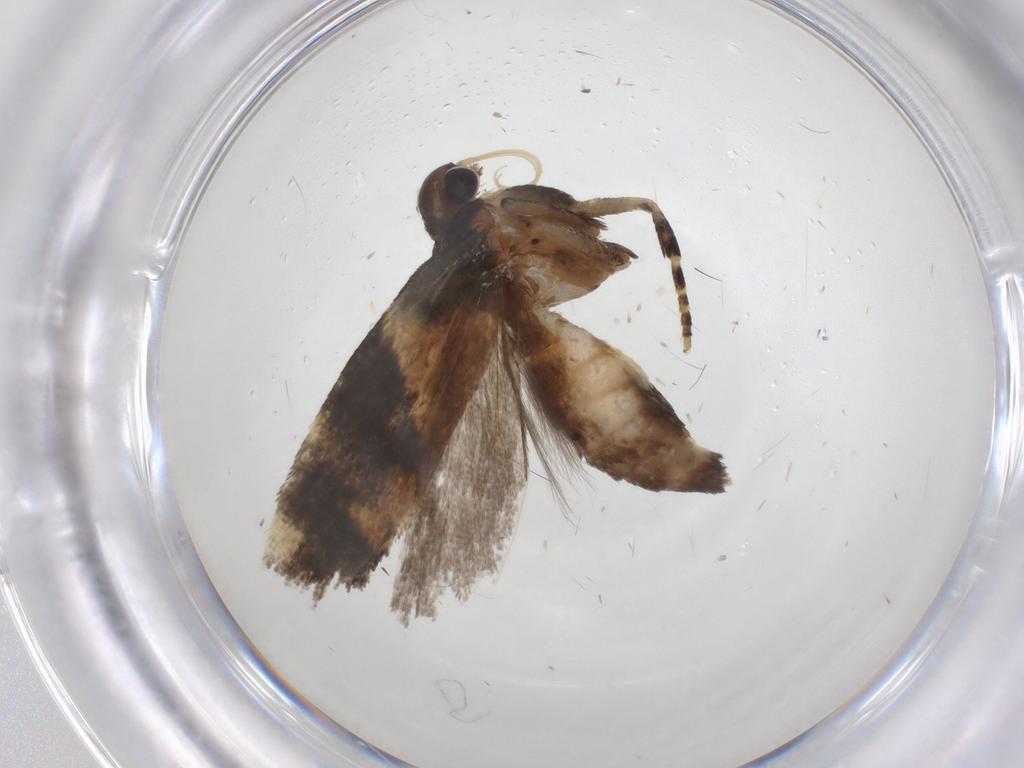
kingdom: Animalia
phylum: Arthropoda
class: Insecta
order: Lepidoptera
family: Gelechiidae
